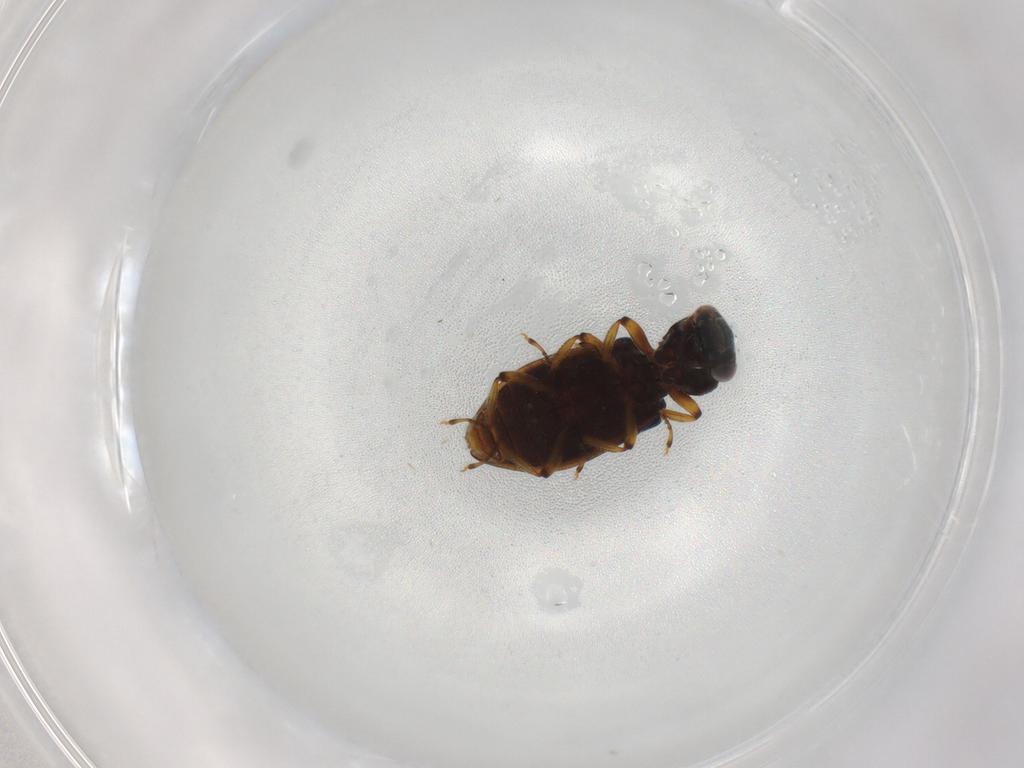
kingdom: Animalia
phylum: Arthropoda
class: Insecta
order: Coleoptera
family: Hydrophilidae
